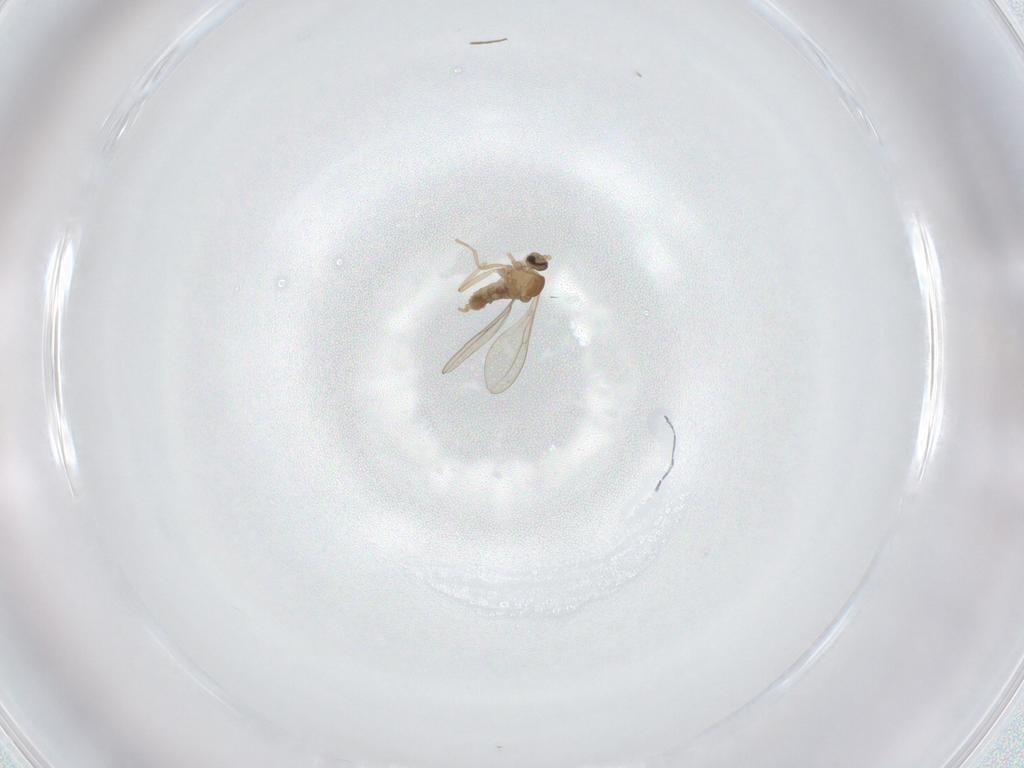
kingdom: Animalia
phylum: Arthropoda
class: Insecta
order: Diptera
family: Cecidomyiidae
